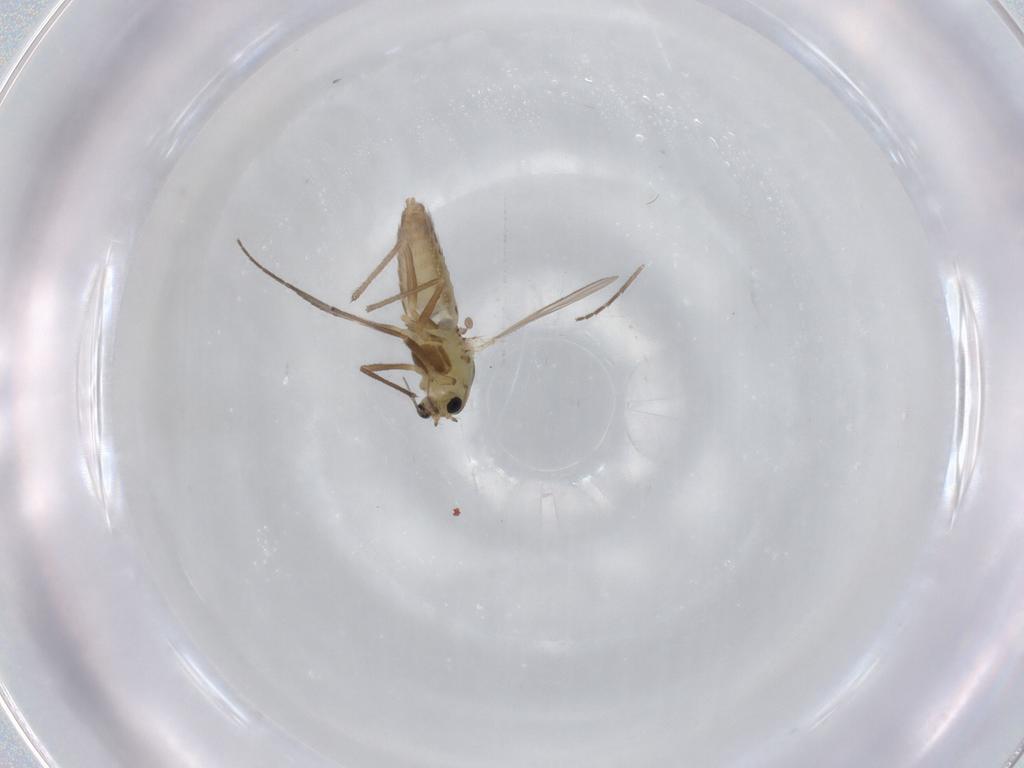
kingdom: Animalia
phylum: Arthropoda
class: Insecta
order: Diptera
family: Chironomidae
